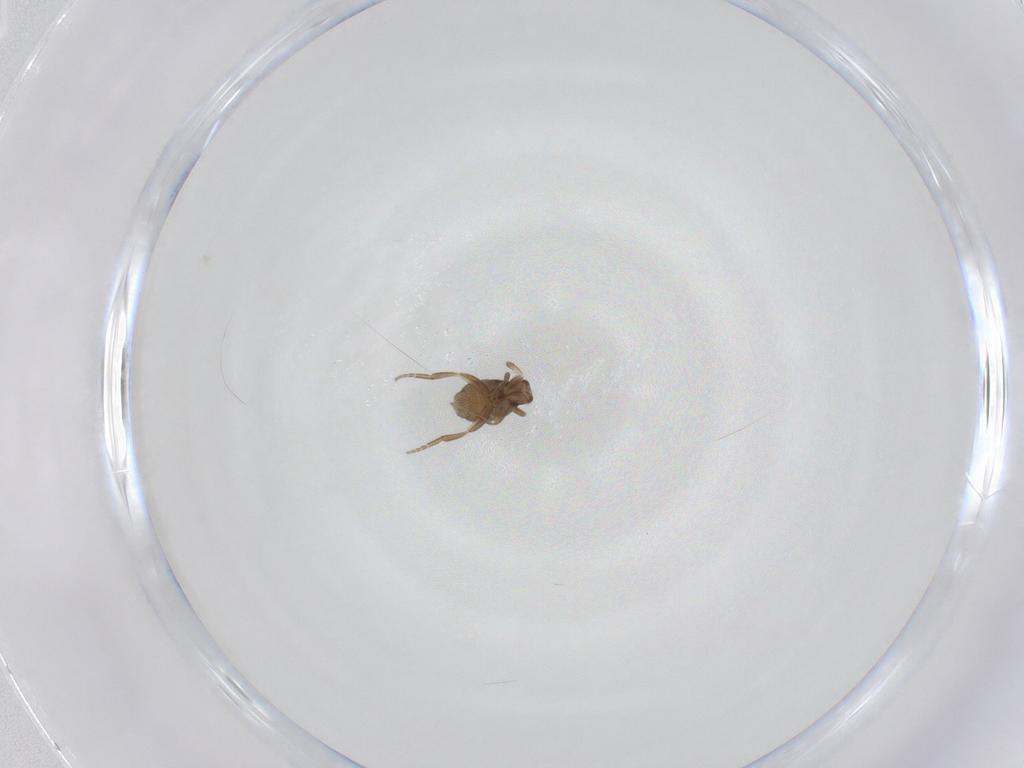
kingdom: Animalia
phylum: Arthropoda
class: Insecta
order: Diptera
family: Phoridae
